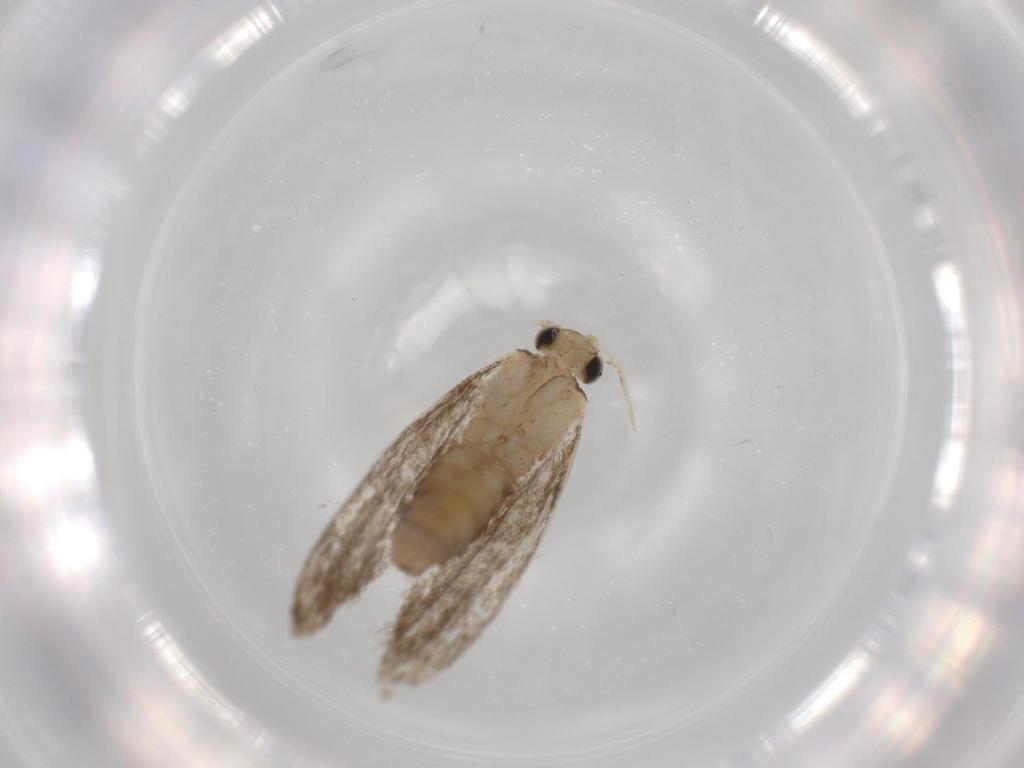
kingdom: Animalia
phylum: Arthropoda
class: Insecta
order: Lepidoptera
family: Tineidae
